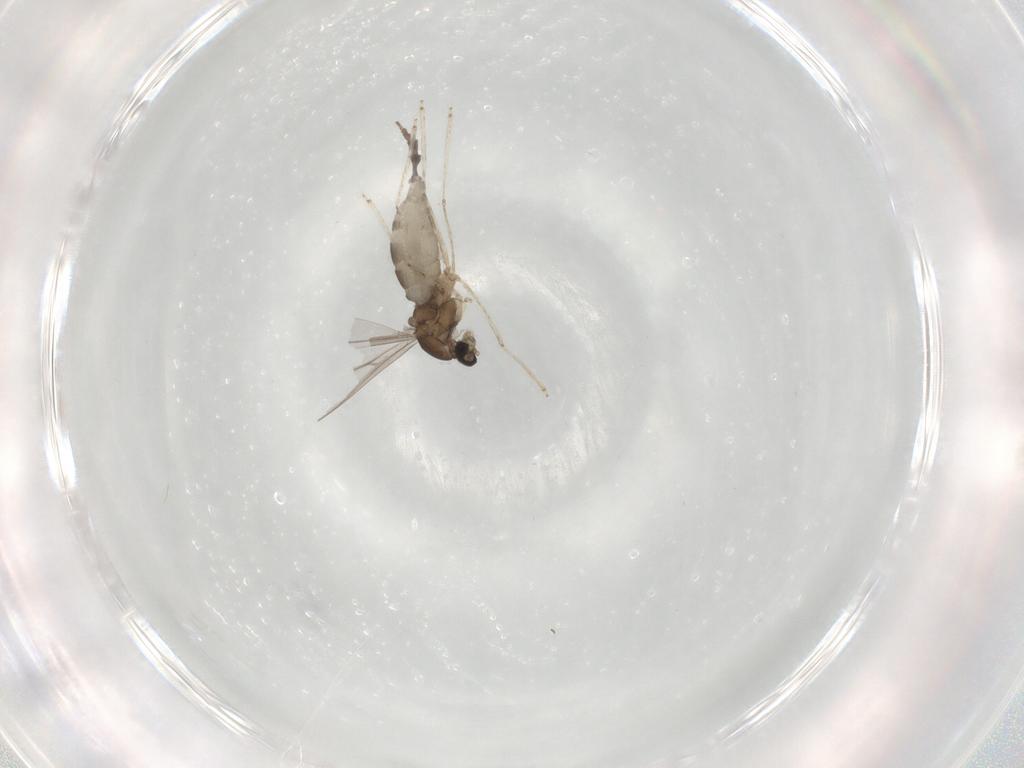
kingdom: Animalia
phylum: Arthropoda
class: Insecta
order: Diptera
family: Cecidomyiidae
